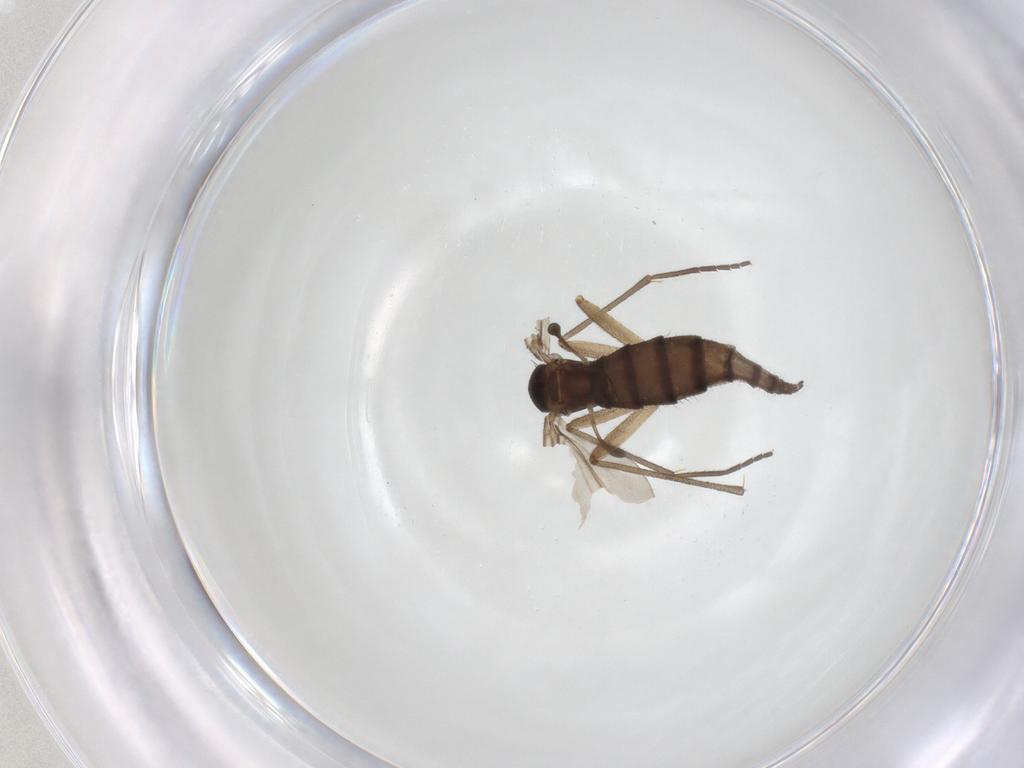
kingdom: Animalia
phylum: Arthropoda
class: Insecta
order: Diptera
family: Sciaridae
